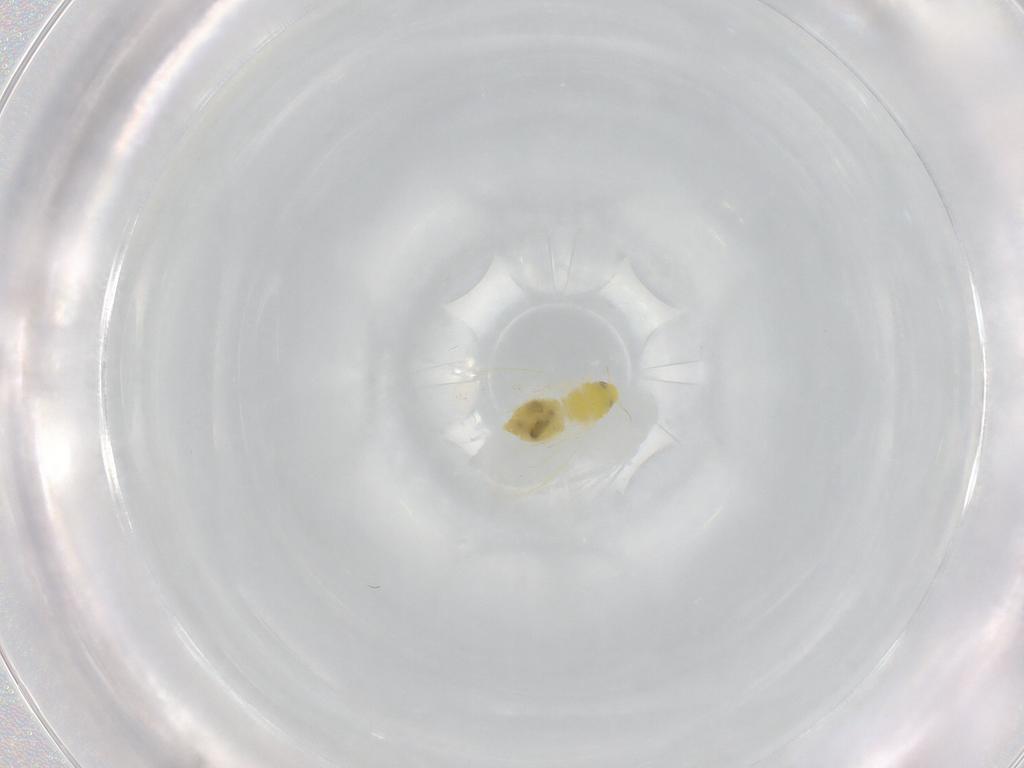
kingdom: Animalia
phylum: Arthropoda
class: Insecta
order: Hemiptera
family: Aleyrodidae
